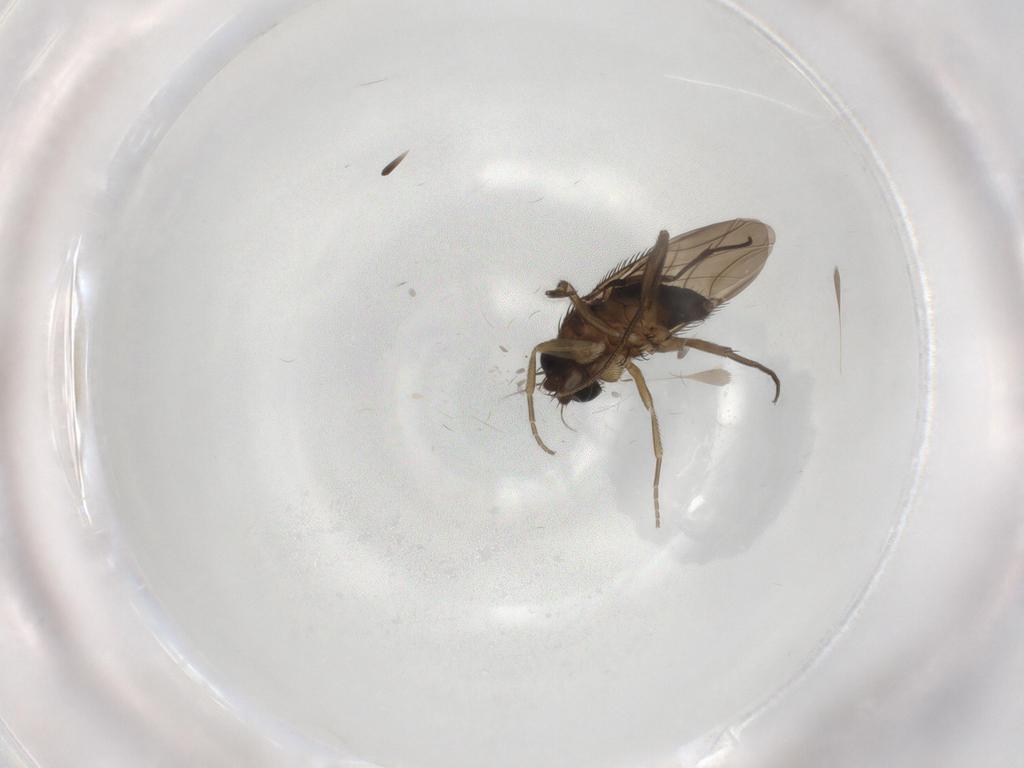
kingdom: Animalia
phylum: Arthropoda
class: Insecta
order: Diptera
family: Phoridae
